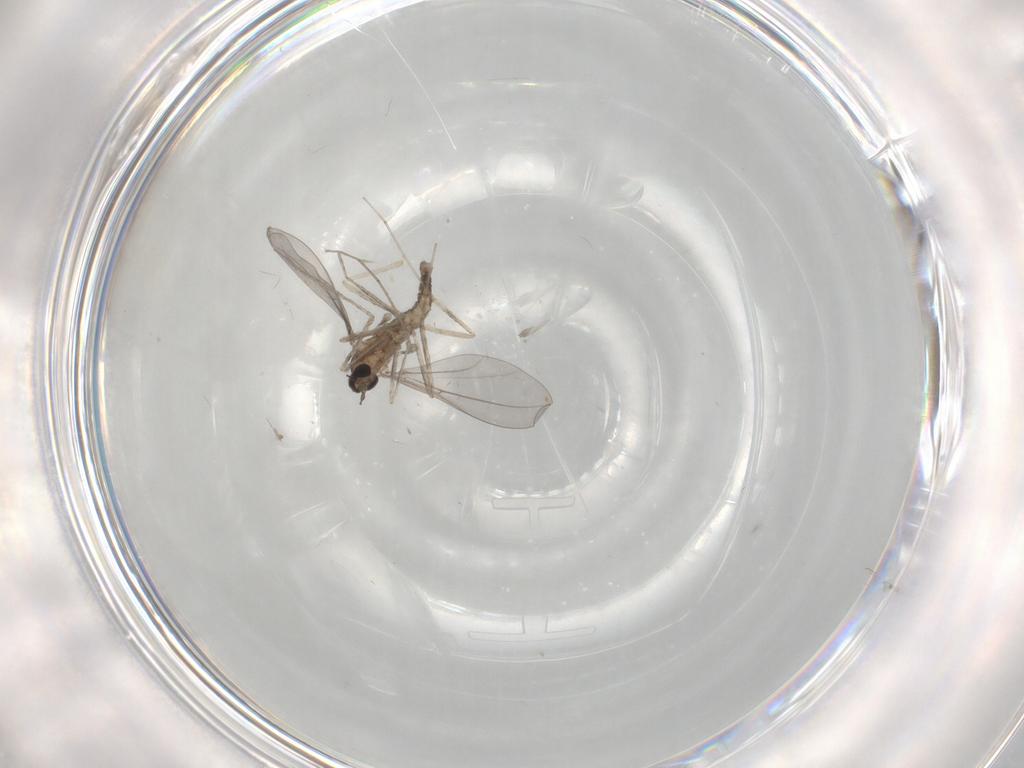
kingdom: Animalia
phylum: Arthropoda
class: Insecta
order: Diptera
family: Cecidomyiidae
